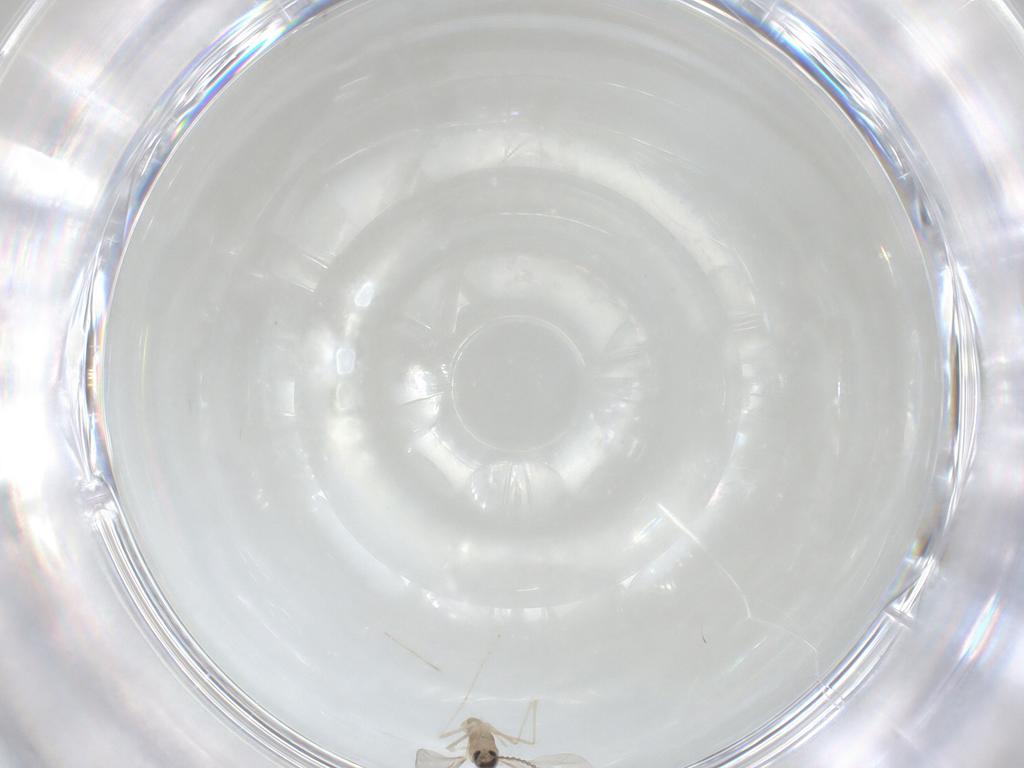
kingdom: Animalia
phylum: Arthropoda
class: Insecta
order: Diptera
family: Cecidomyiidae
